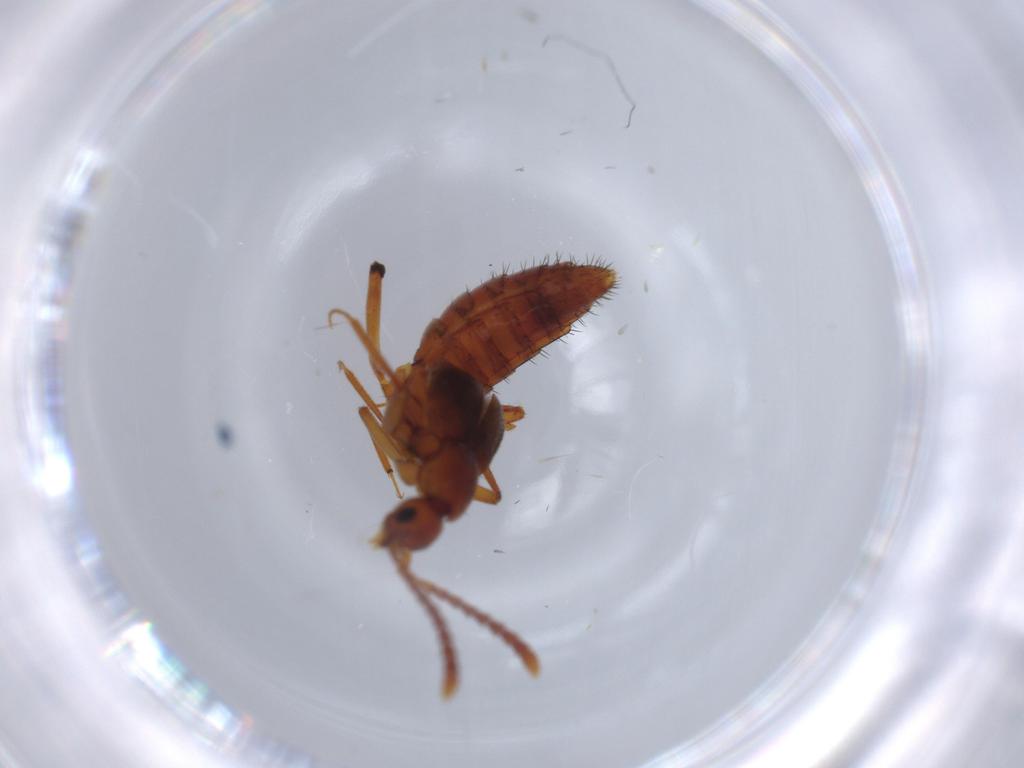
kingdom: Animalia
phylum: Arthropoda
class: Insecta
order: Coleoptera
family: Staphylinidae
